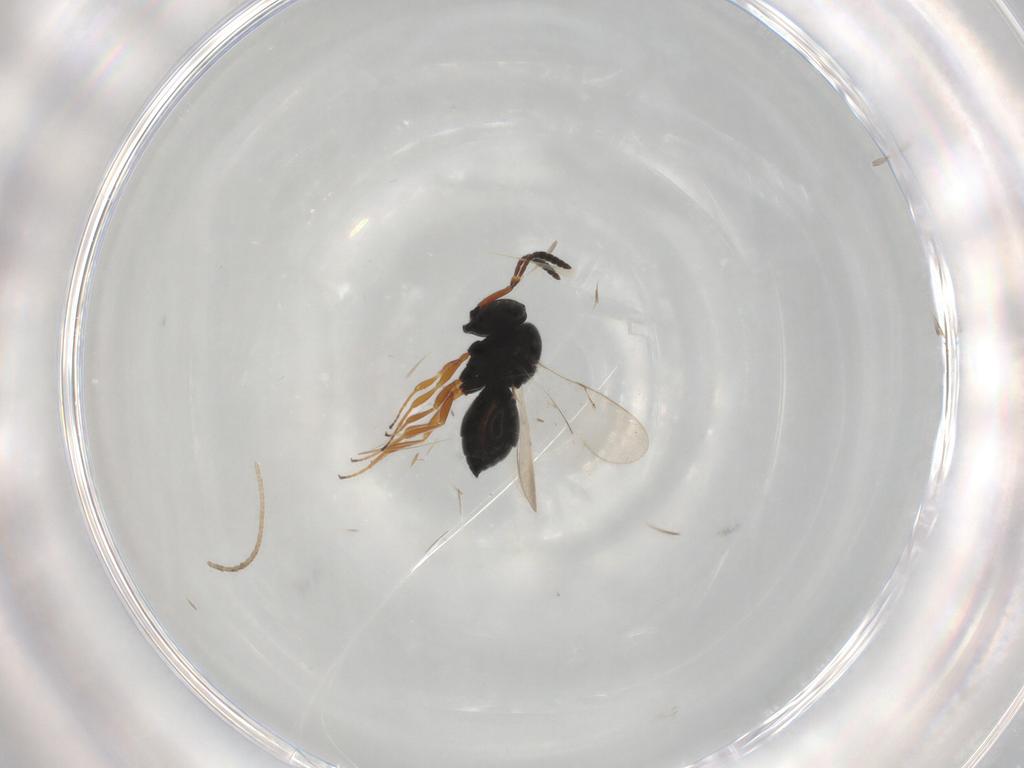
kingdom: Animalia
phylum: Arthropoda
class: Insecta
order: Hymenoptera
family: Scelionidae
